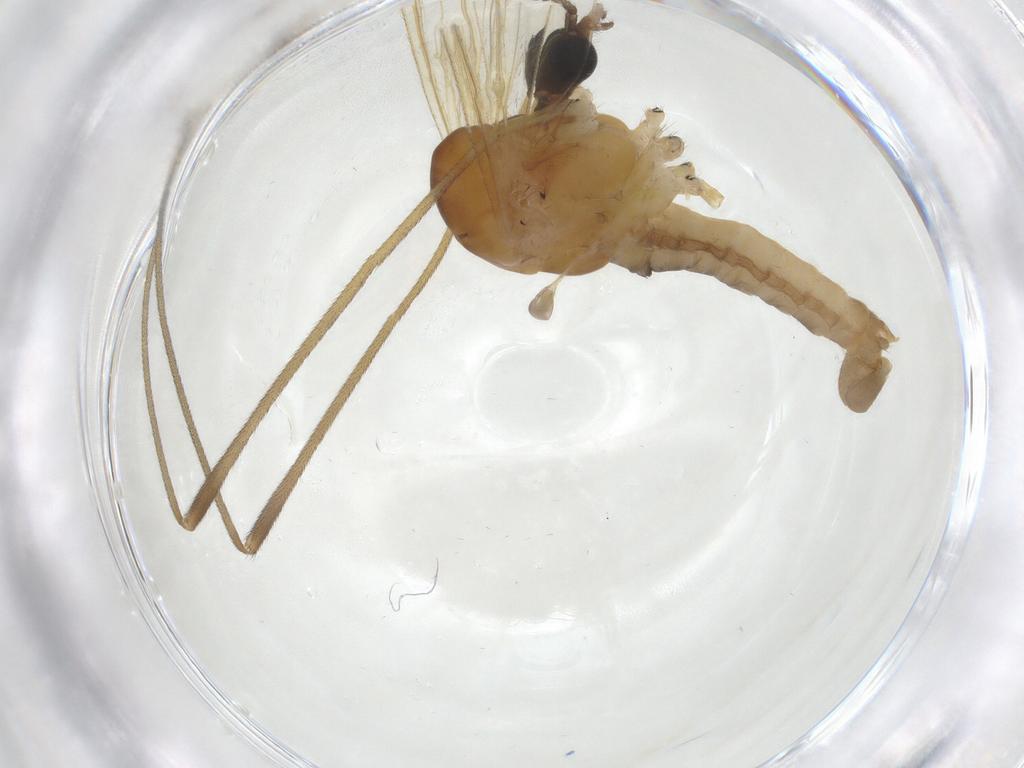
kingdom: Animalia
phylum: Arthropoda
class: Insecta
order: Diptera
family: Limoniidae
